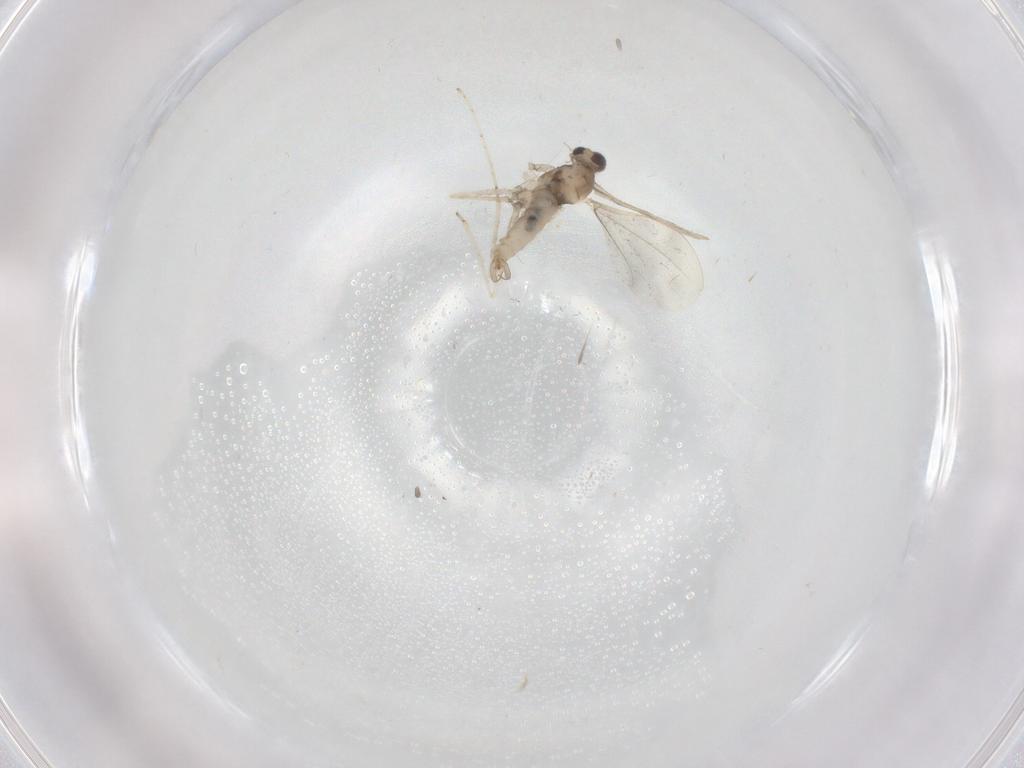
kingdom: Animalia
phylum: Arthropoda
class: Insecta
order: Diptera
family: Cecidomyiidae
